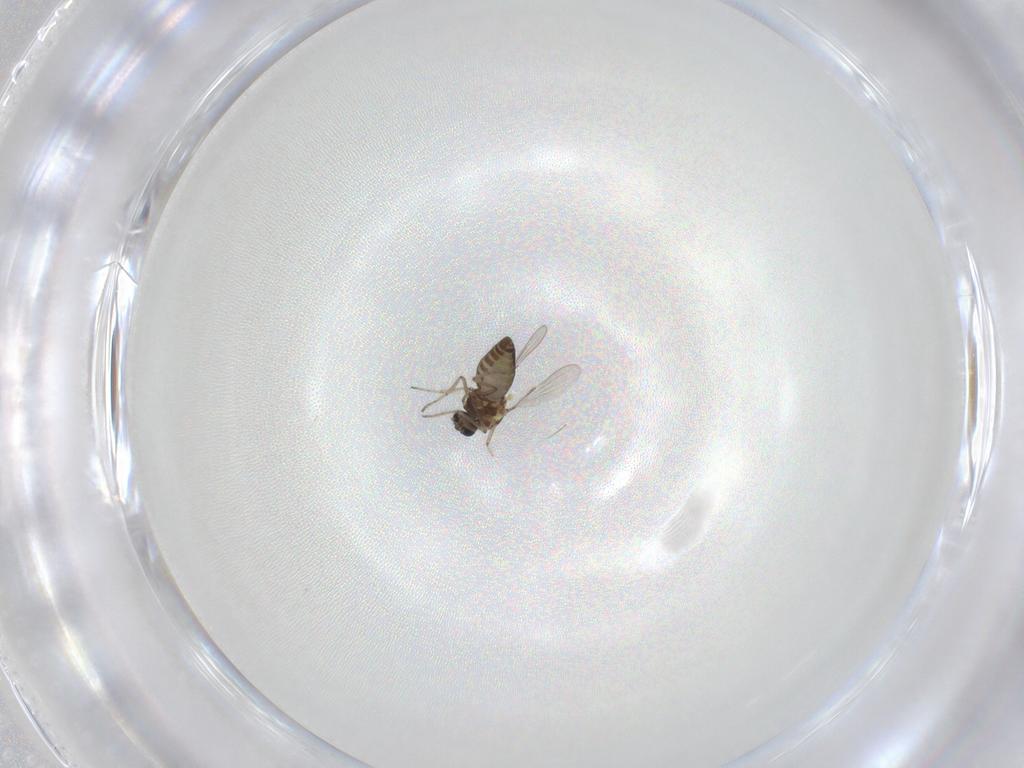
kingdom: Animalia
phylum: Arthropoda
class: Insecta
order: Diptera
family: Ceratopogonidae
